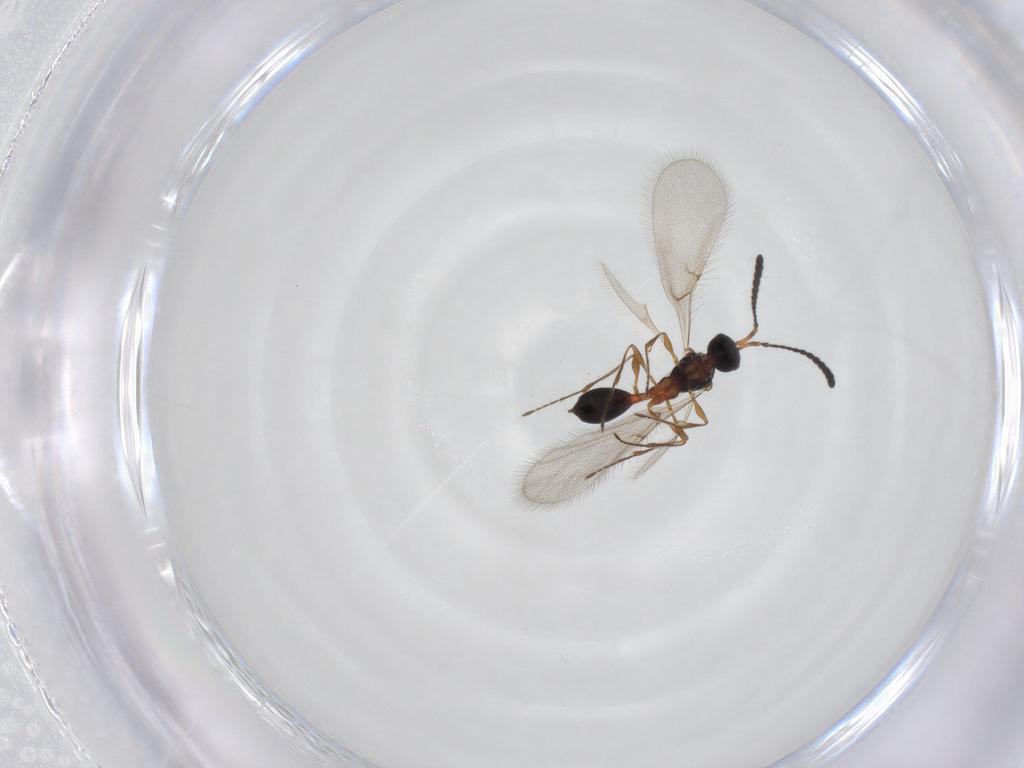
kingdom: Animalia
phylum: Arthropoda
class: Insecta
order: Hymenoptera
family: Diapriidae
